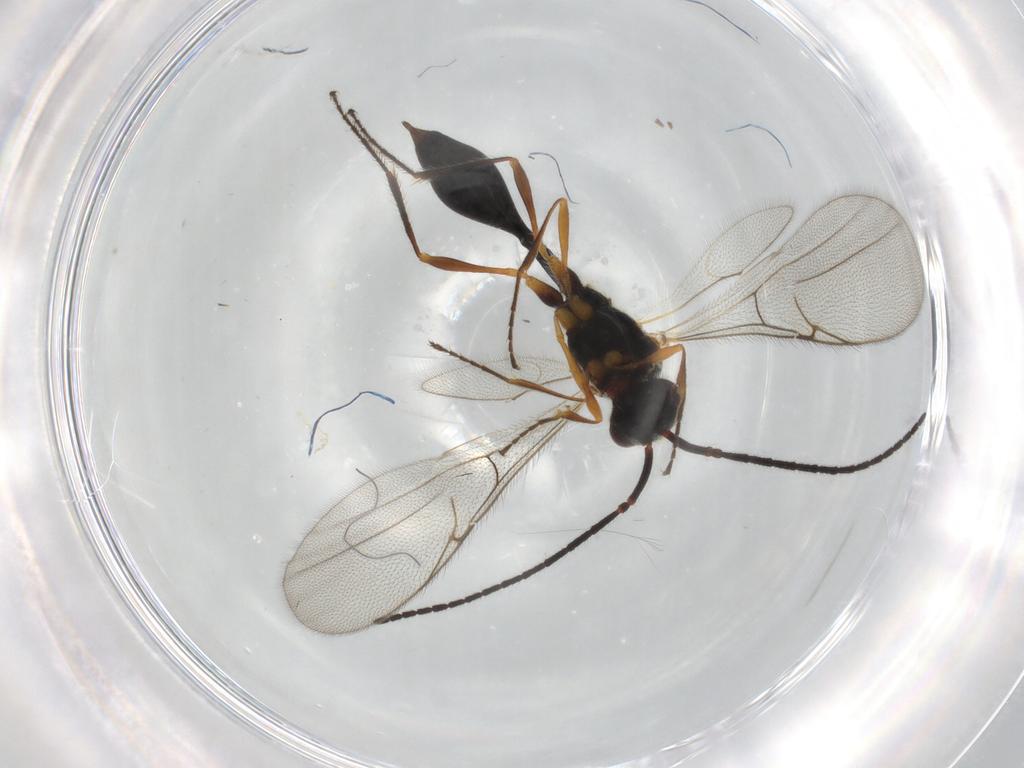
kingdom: Animalia
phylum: Arthropoda
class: Insecta
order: Hymenoptera
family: Diapriidae
